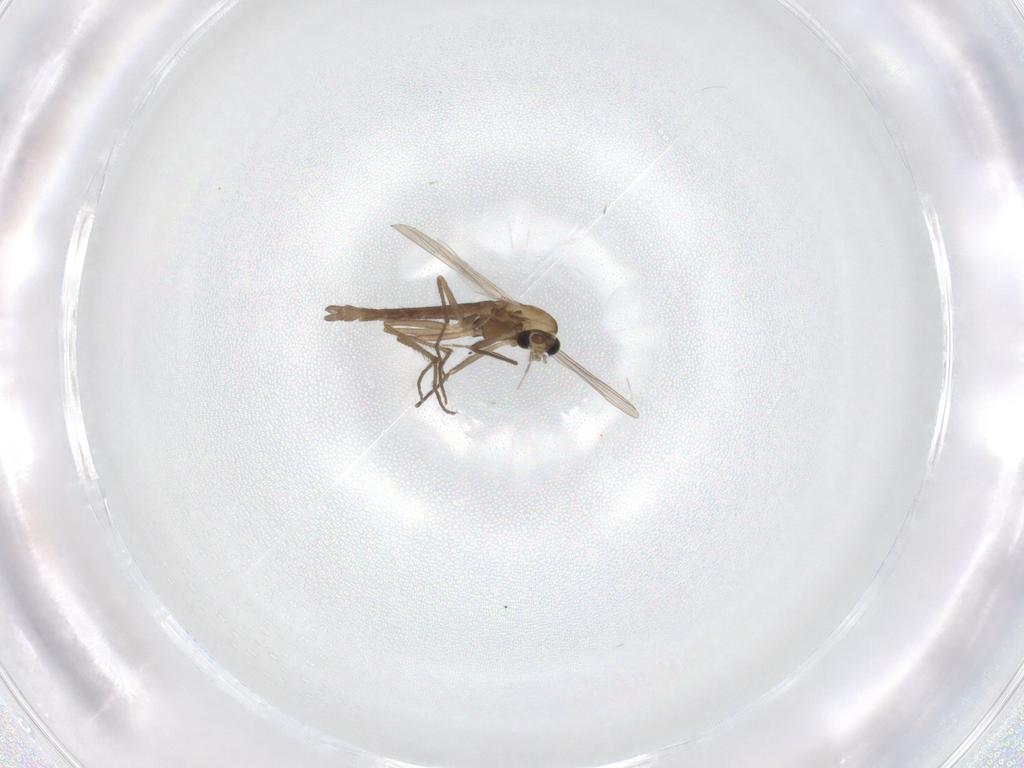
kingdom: Animalia
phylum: Arthropoda
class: Insecta
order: Diptera
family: Chironomidae
